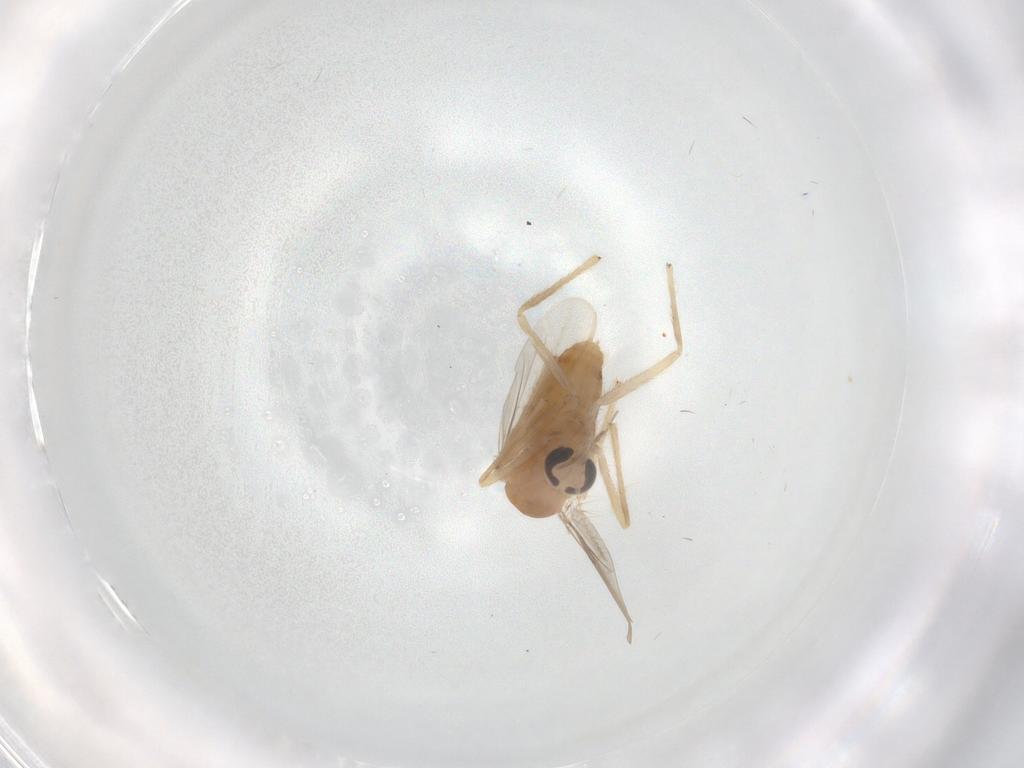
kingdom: Animalia
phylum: Arthropoda
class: Insecta
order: Diptera
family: Chironomidae
